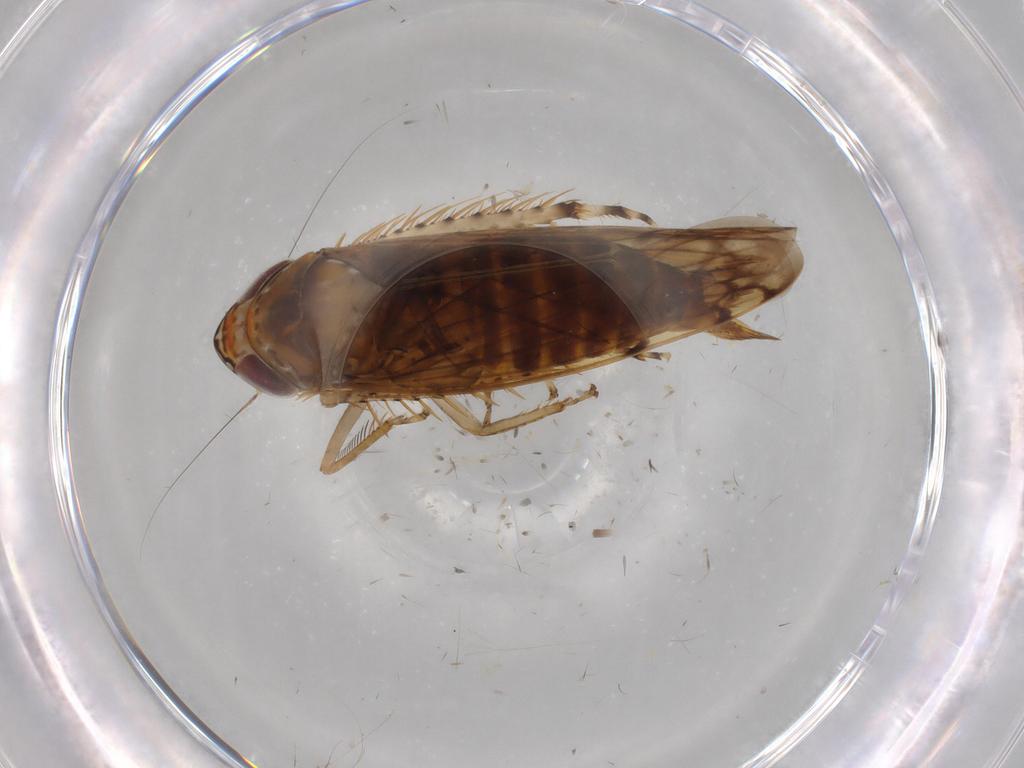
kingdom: Animalia
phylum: Arthropoda
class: Insecta
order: Hemiptera
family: Cicadellidae
